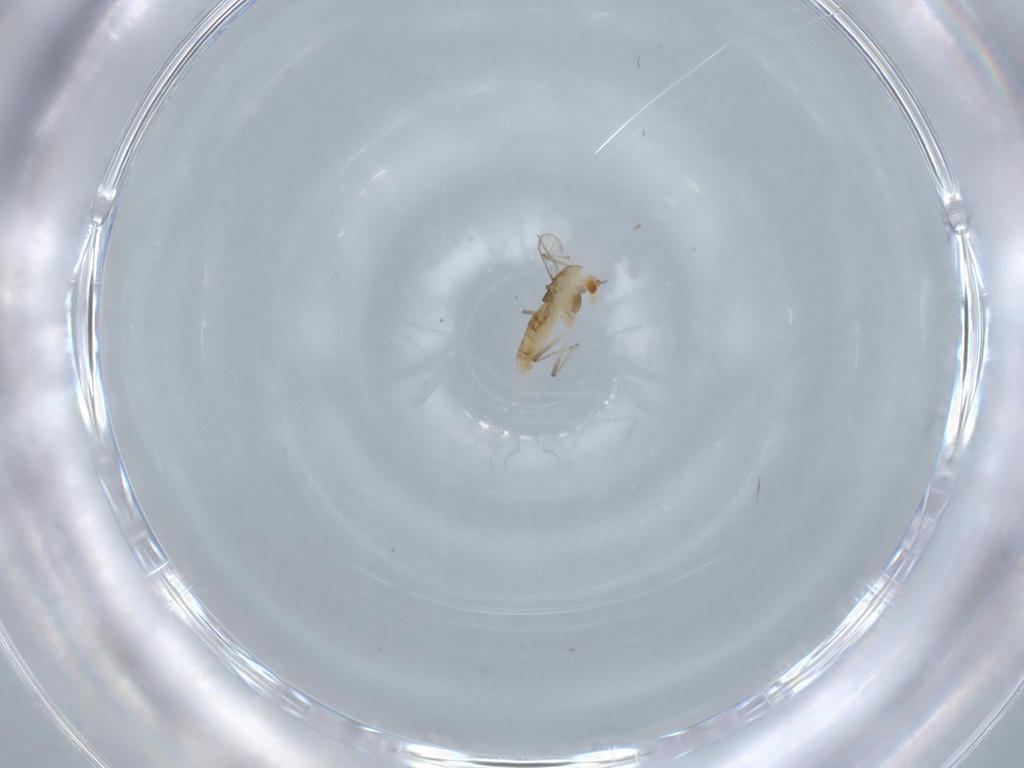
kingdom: Animalia
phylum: Arthropoda
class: Insecta
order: Diptera
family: Chironomidae
